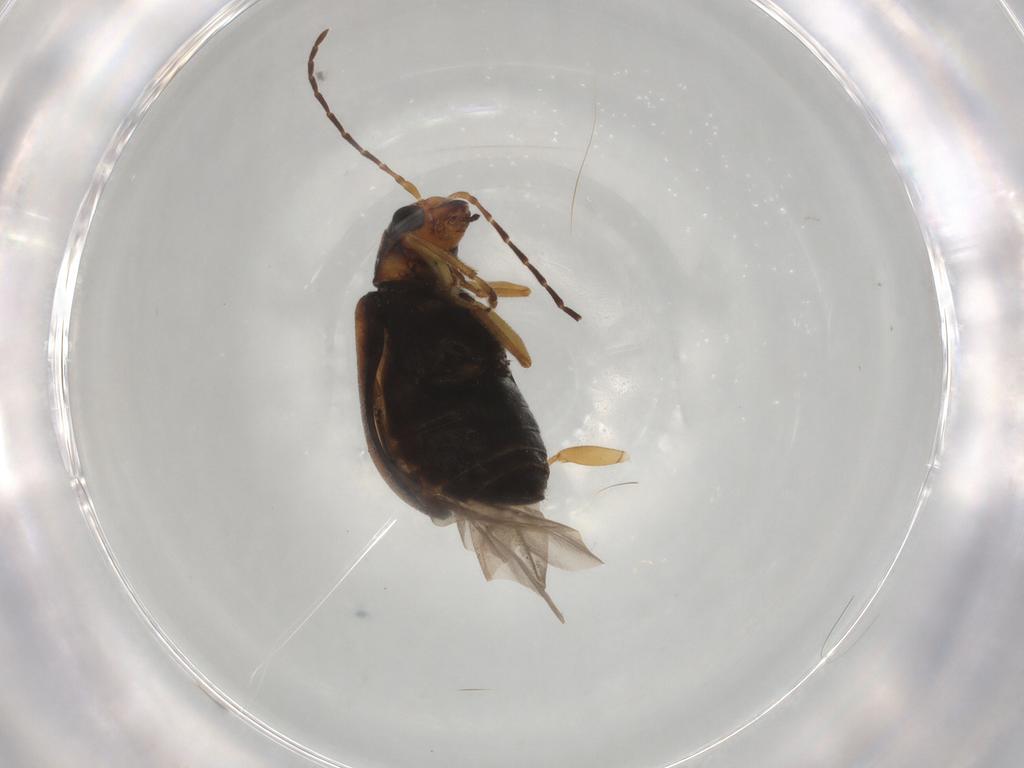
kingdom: Animalia
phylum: Arthropoda
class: Insecta
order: Coleoptera
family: Chrysomelidae
